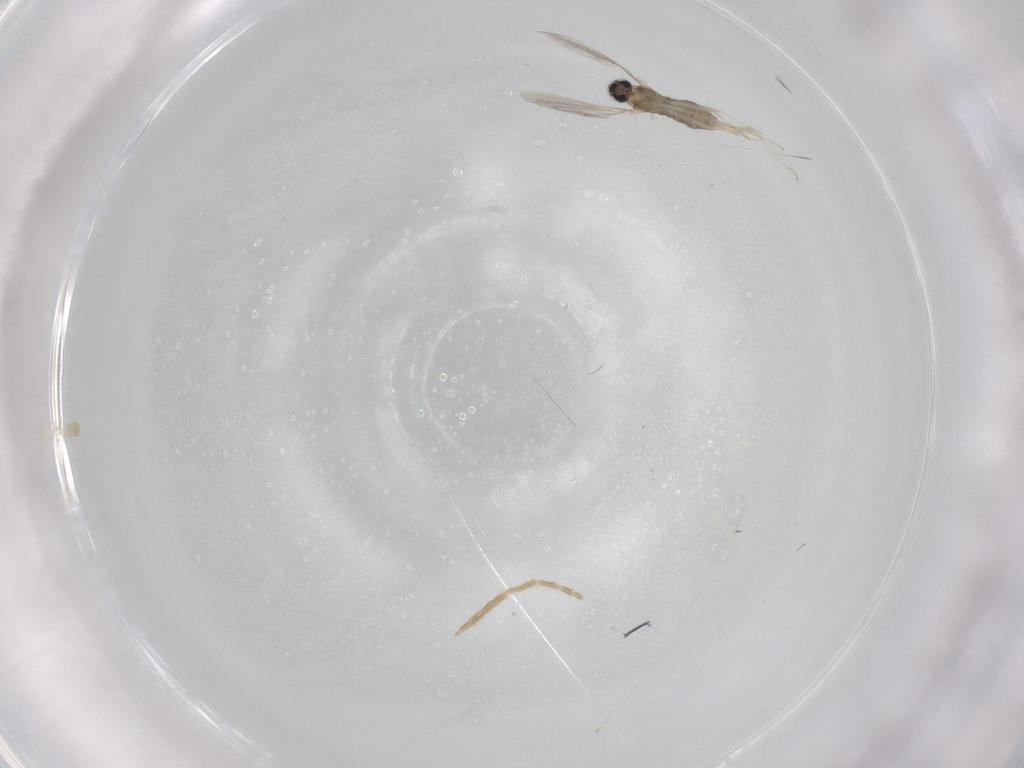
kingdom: Animalia
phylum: Arthropoda
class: Insecta
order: Diptera
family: Cecidomyiidae
